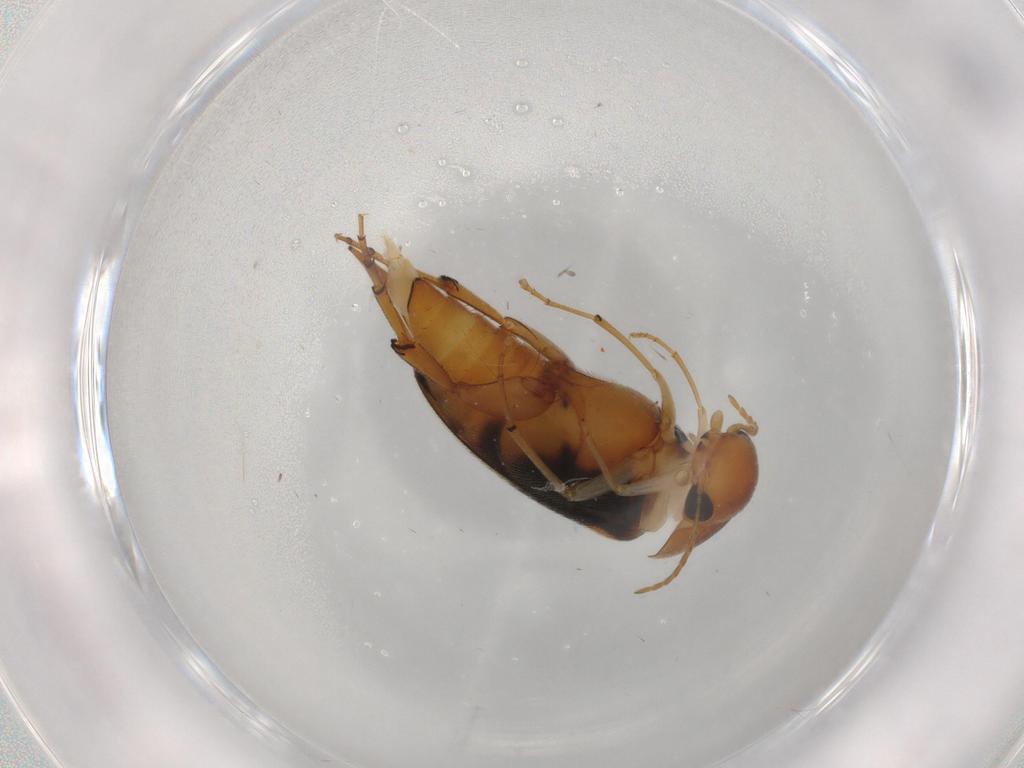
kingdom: Animalia
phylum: Arthropoda
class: Insecta
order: Coleoptera
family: Mordellidae
